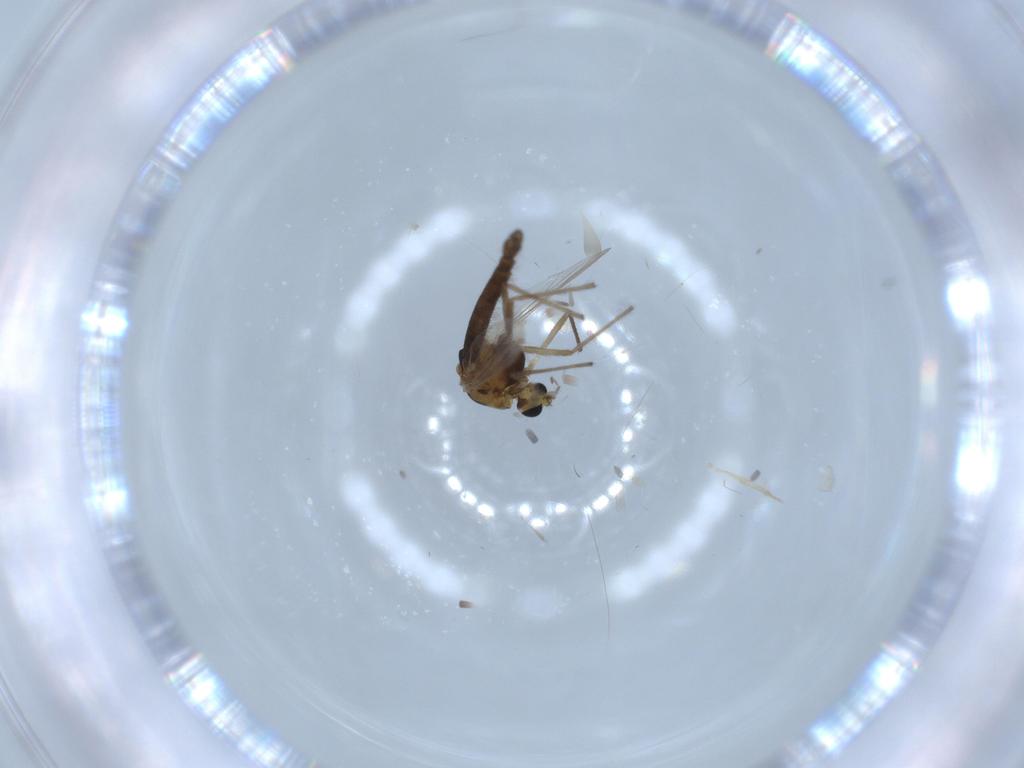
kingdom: Animalia
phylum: Arthropoda
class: Insecta
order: Diptera
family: Chironomidae
